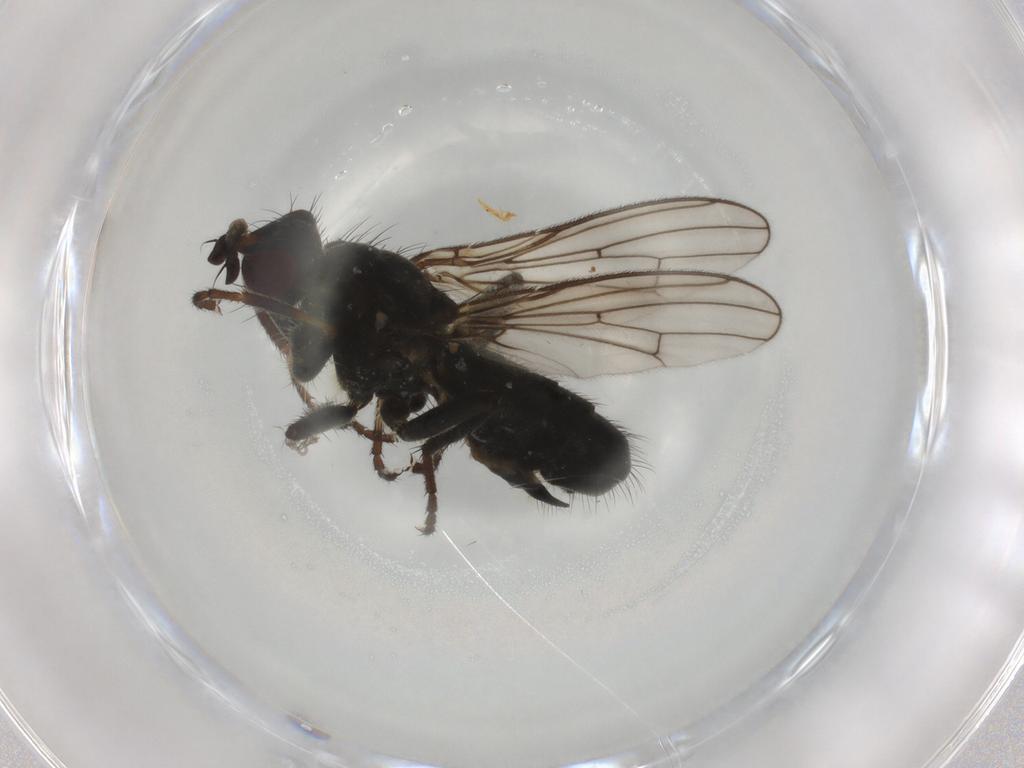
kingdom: Animalia
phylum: Arthropoda
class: Insecta
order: Diptera
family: Scathophagidae
